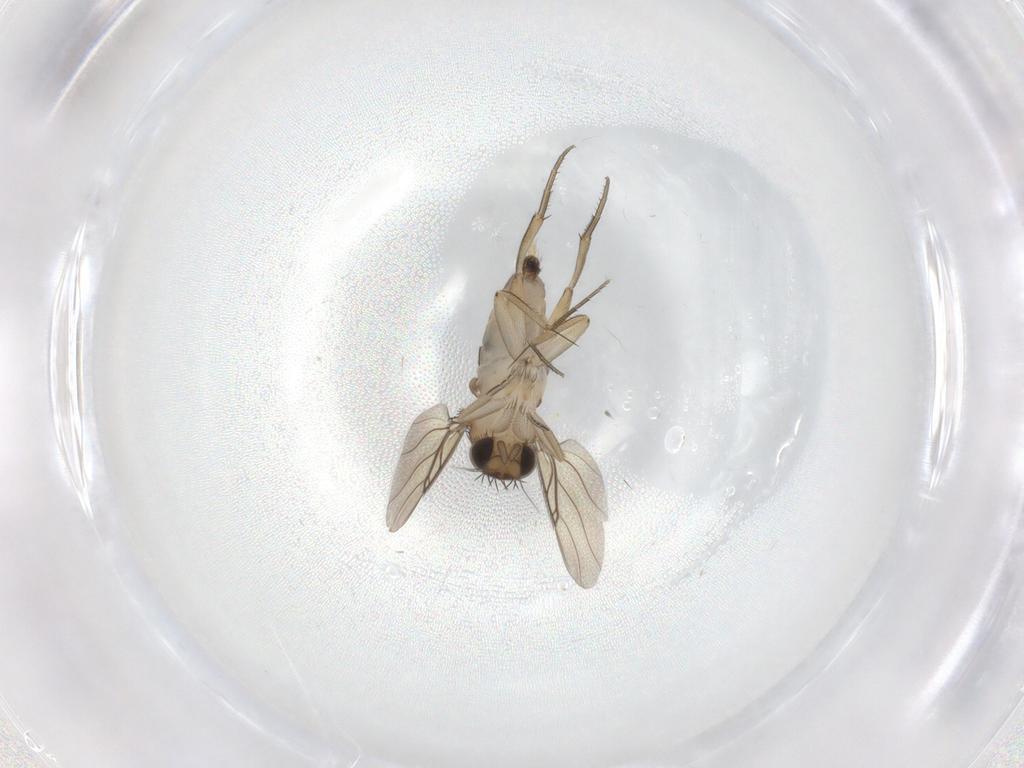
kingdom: Animalia
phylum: Arthropoda
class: Insecta
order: Diptera
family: Phoridae
